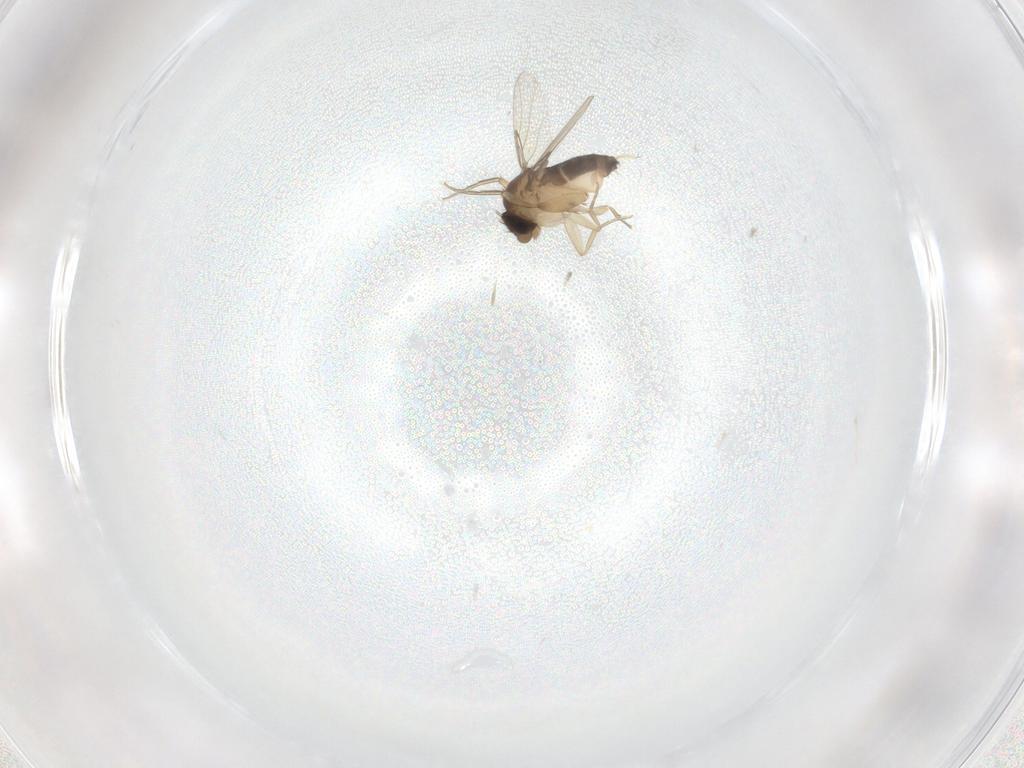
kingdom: Animalia
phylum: Arthropoda
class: Insecta
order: Diptera
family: Phoridae
